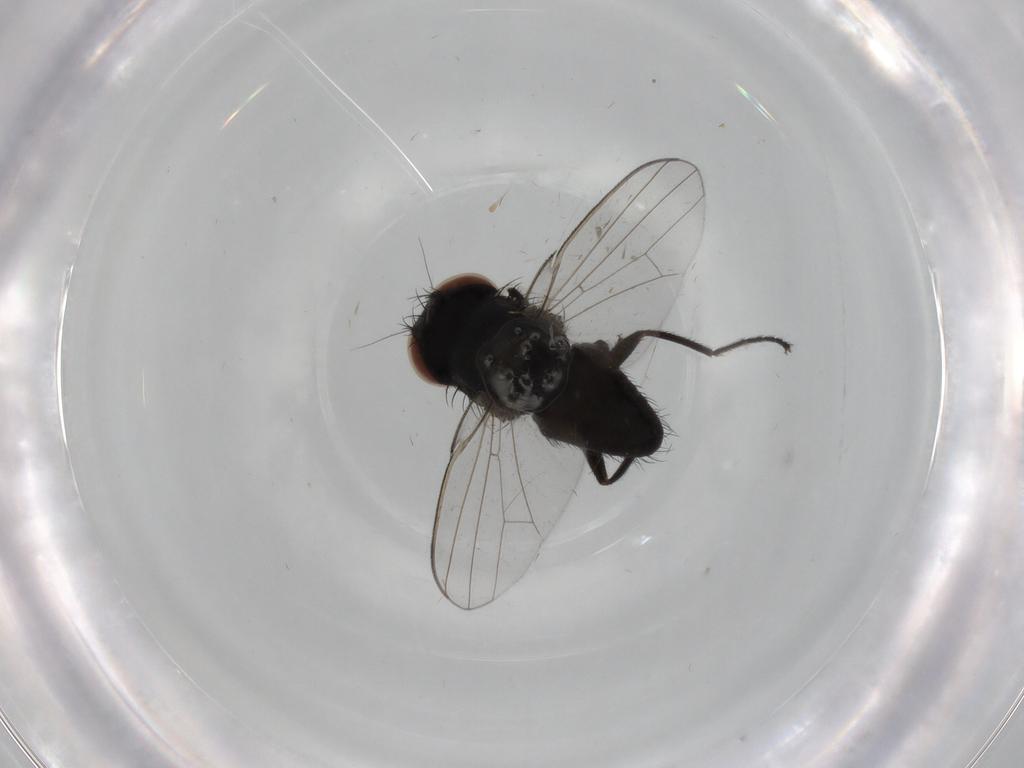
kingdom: Animalia
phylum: Arthropoda
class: Insecta
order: Diptera
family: Milichiidae
